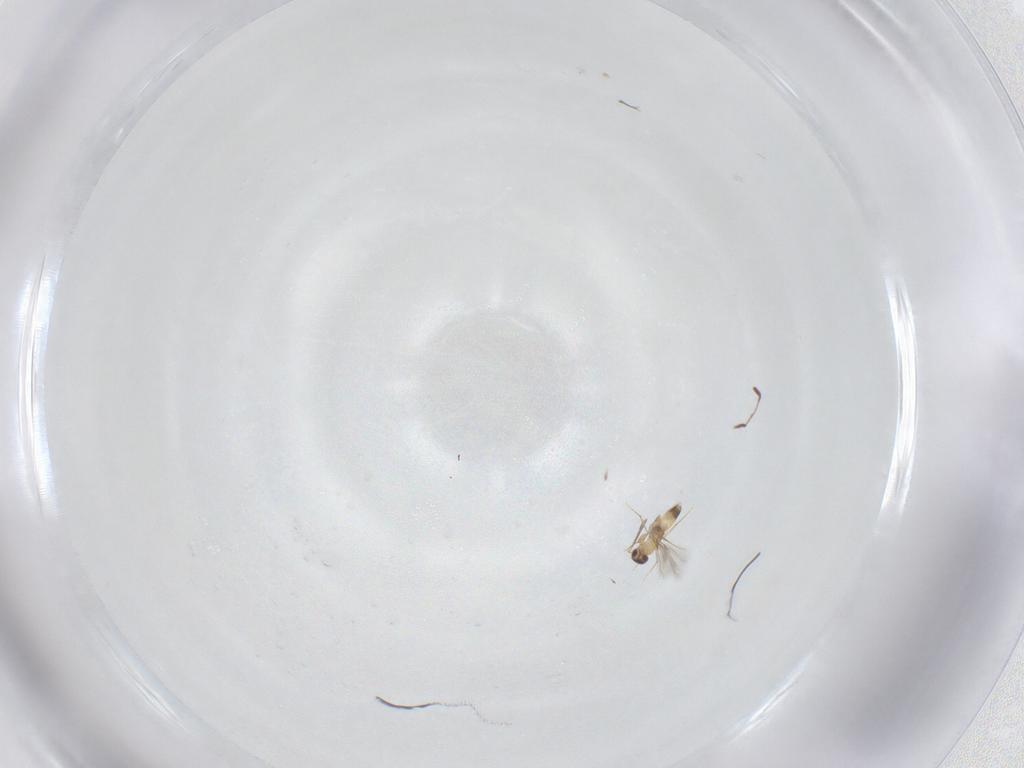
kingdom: Animalia
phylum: Arthropoda
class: Insecta
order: Hymenoptera
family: Mymaridae
